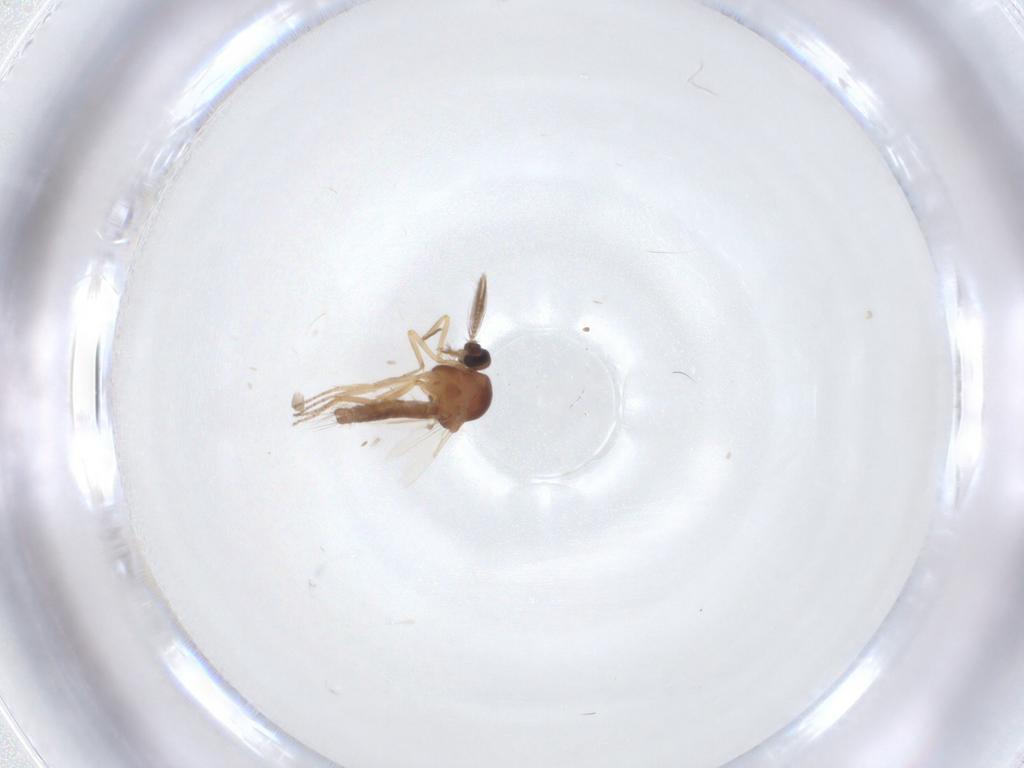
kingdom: Animalia
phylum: Arthropoda
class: Insecta
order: Diptera
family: Ceratopogonidae
